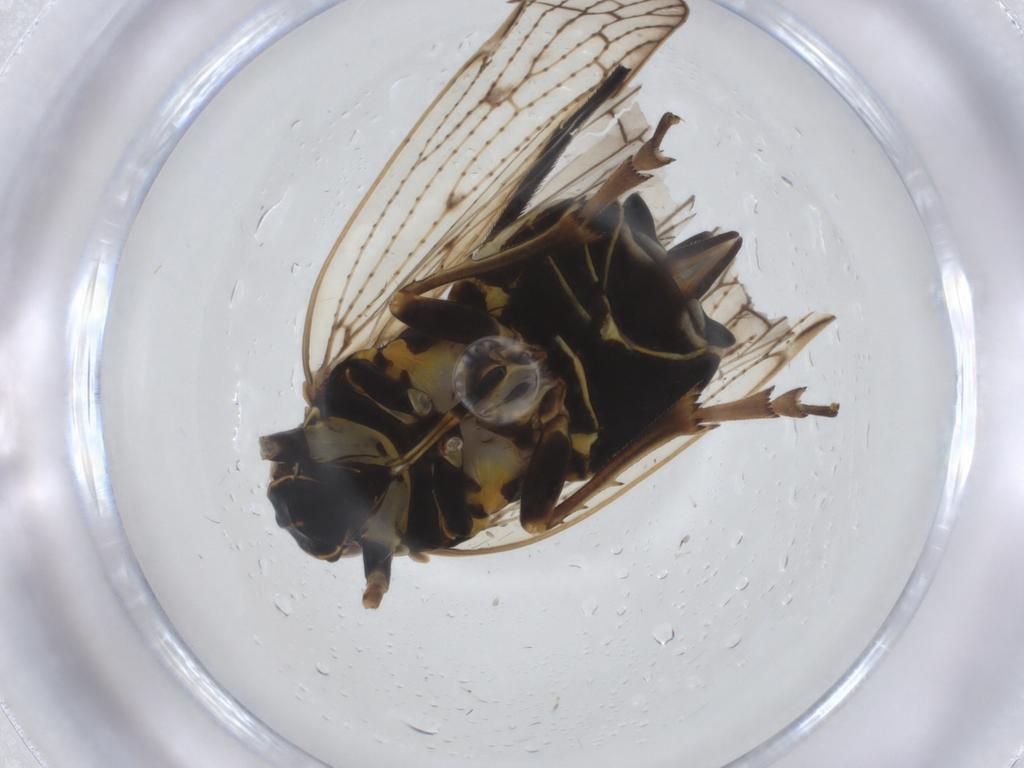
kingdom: Animalia
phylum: Arthropoda
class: Insecta
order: Hemiptera
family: Cixiidae
